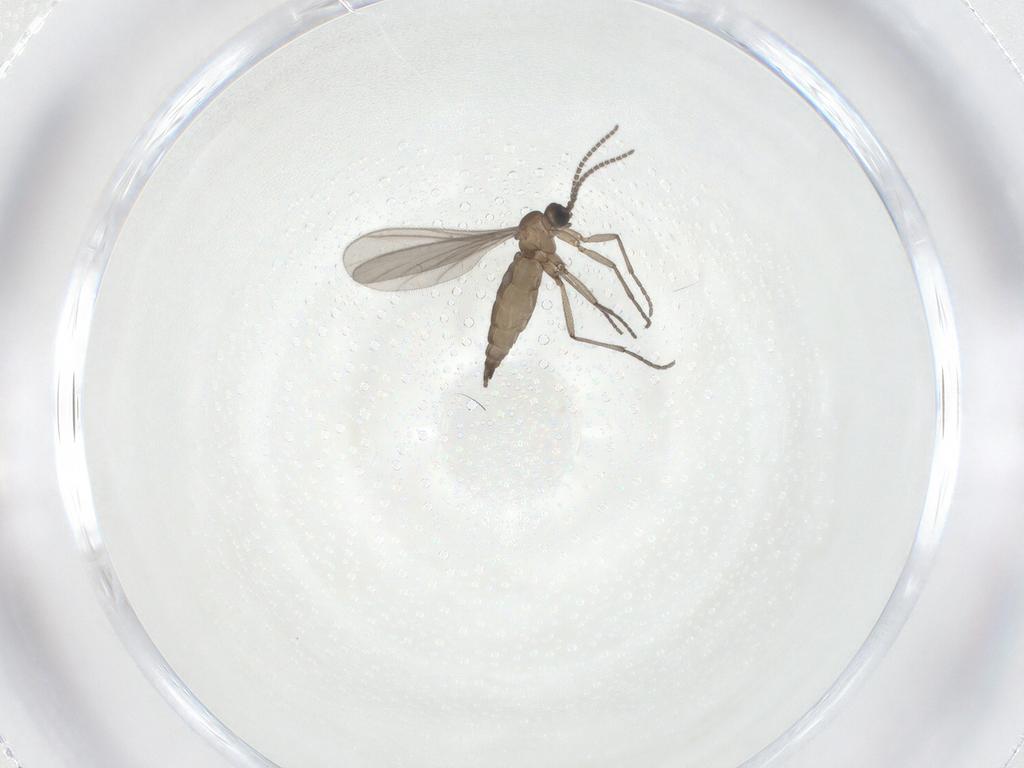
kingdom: Animalia
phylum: Arthropoda
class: Insecta
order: Diptera
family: Sciaridae
